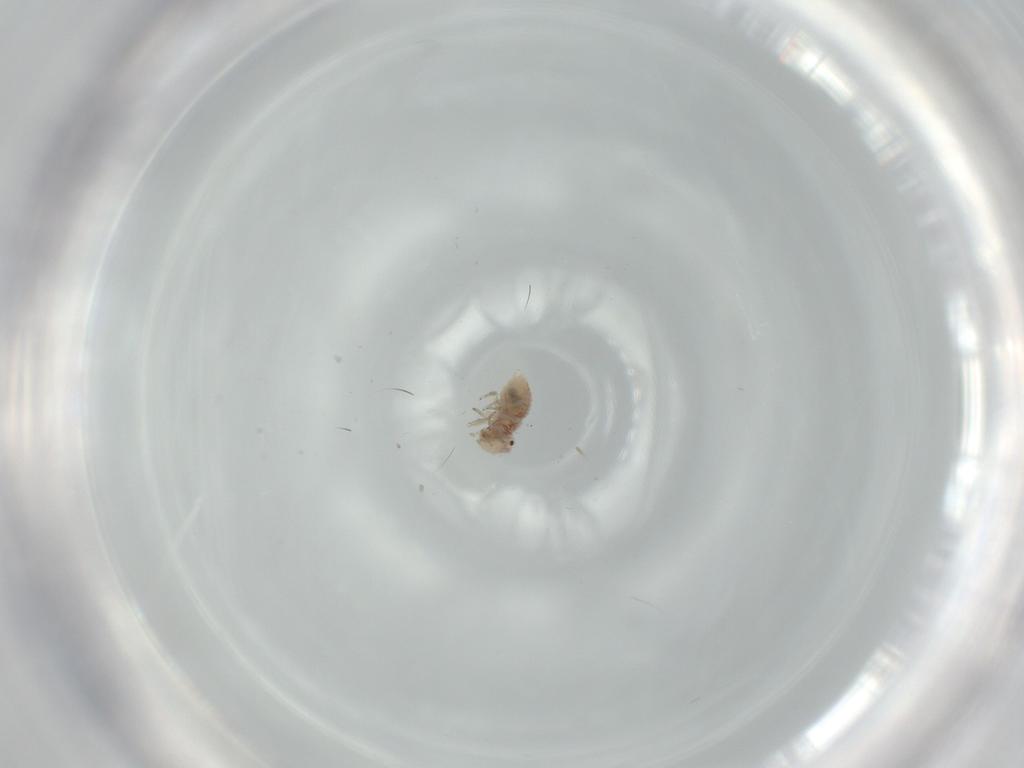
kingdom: Animalia
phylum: Arthropoda
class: Insecta
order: Psocodea
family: Ectopsocidae
